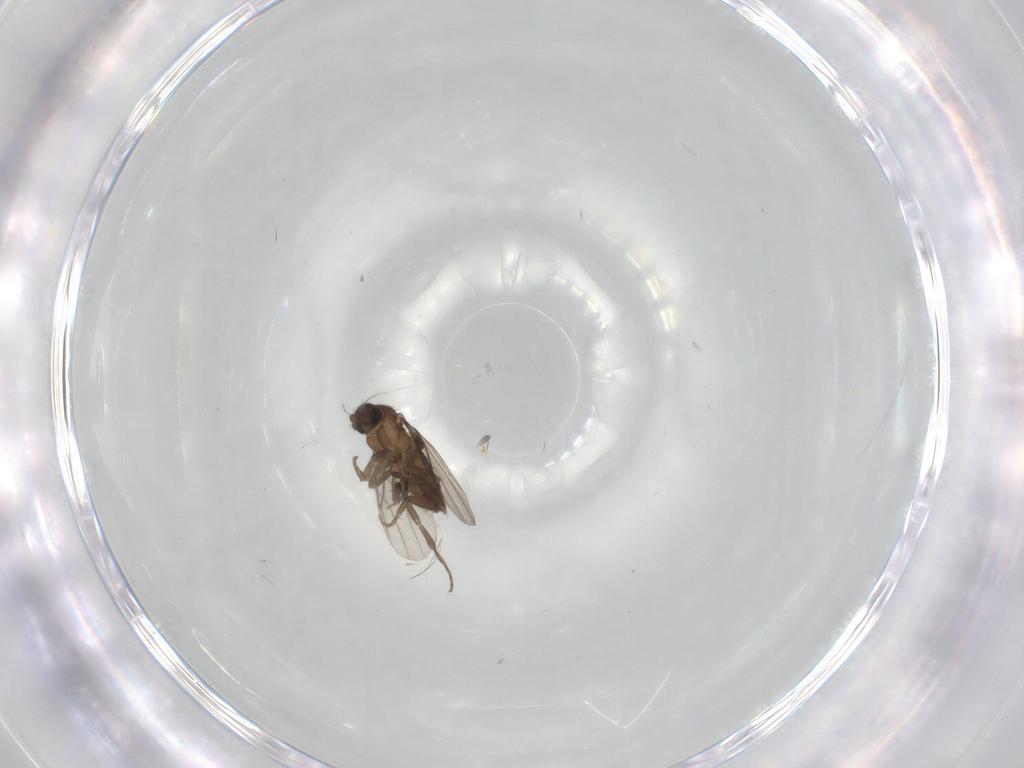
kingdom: Animalia
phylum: Arthropoda
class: Insecta
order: Diptera
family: Phoridae
